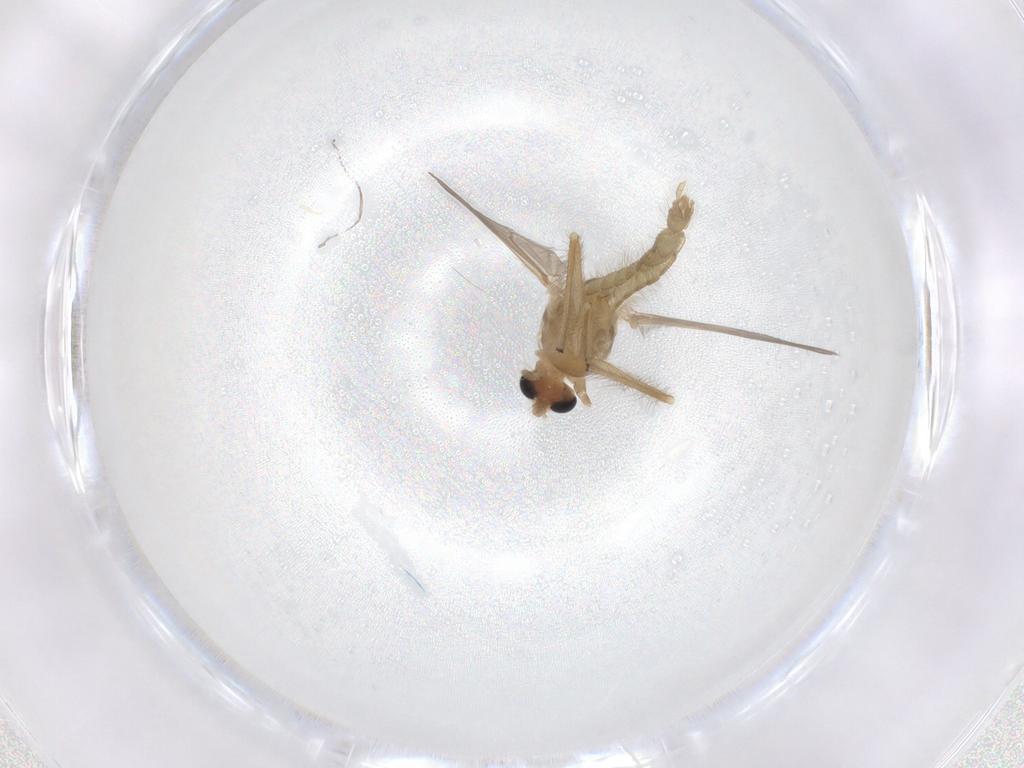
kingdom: Animalia
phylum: Arthropoda
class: Insecta
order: Diptera
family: Chironomidae
